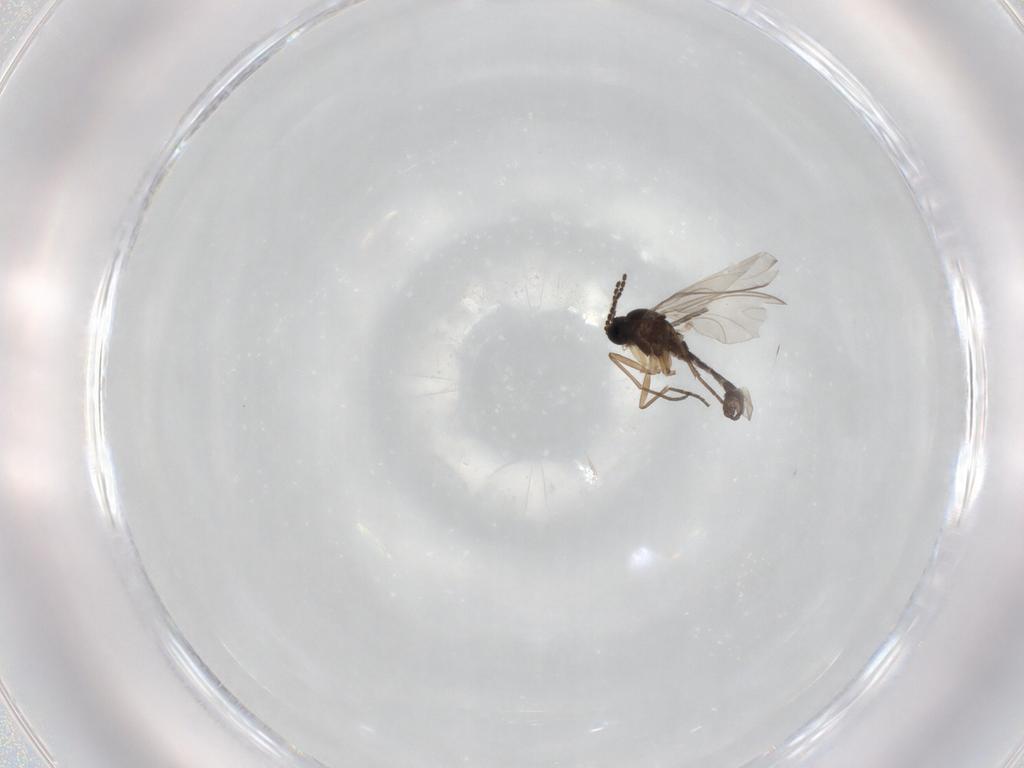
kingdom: Animalia
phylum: Arthropoda
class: Insecta
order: Diptera
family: Sciaridae
